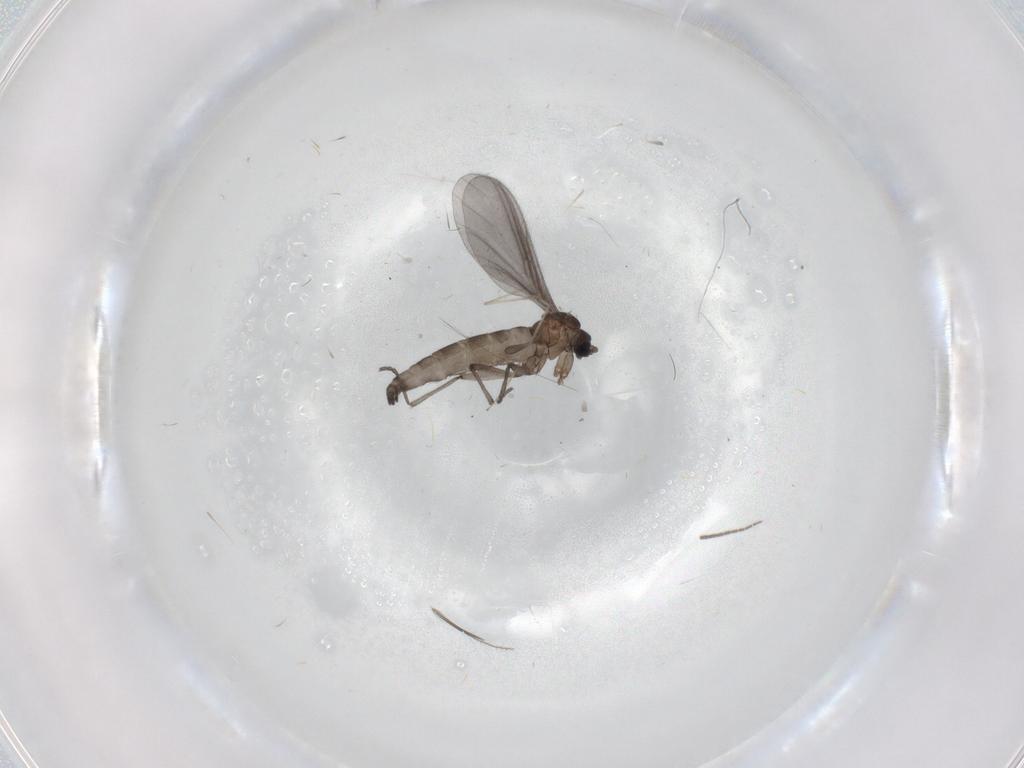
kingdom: Animalia
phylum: Arthropoda
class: Insecta
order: Diptera
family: Sciaridae
